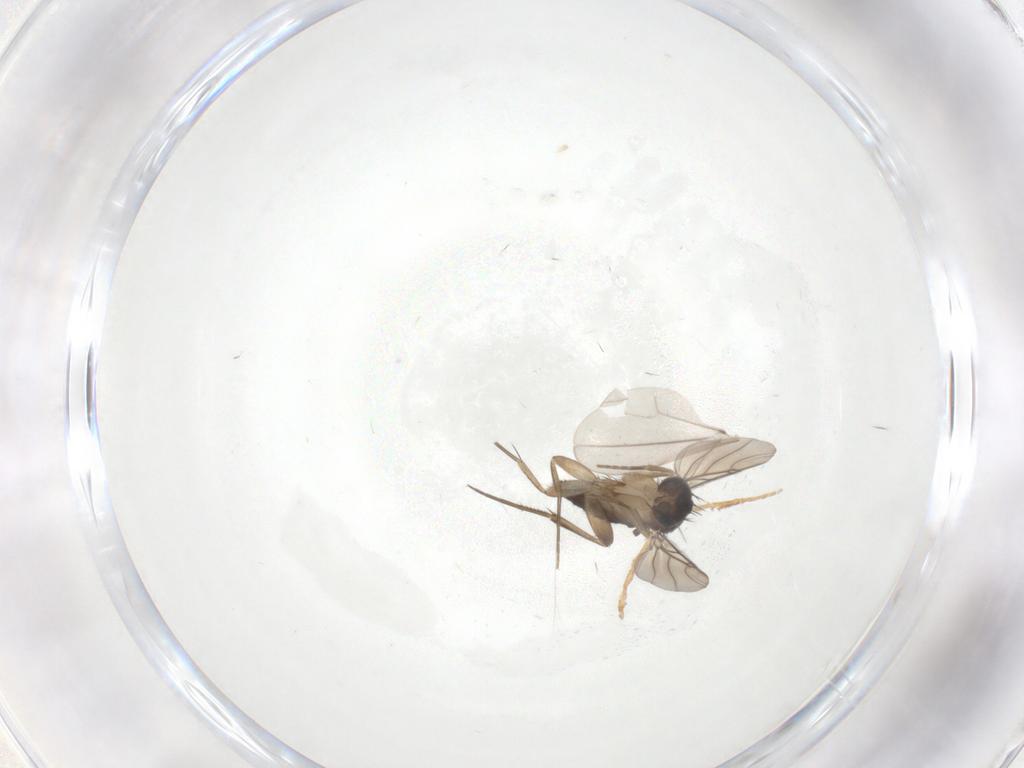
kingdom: Animalia
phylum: Arthropoda
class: Insecta
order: Diptera
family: Phoridae
